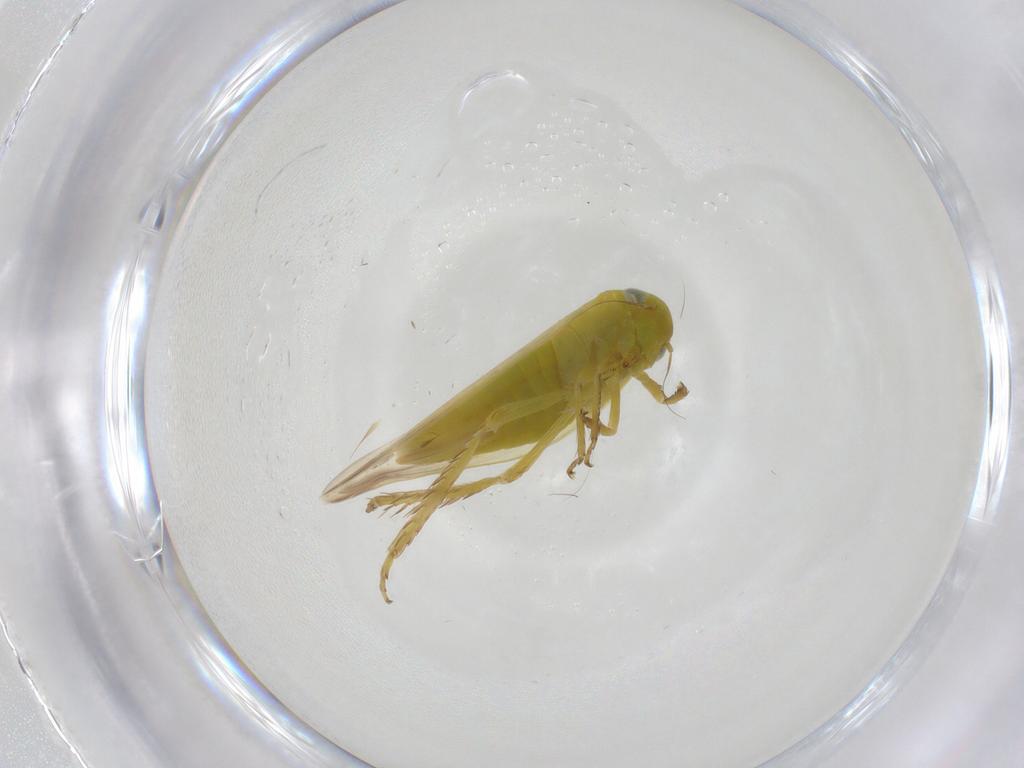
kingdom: Animalia
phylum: Arthropoda
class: Insecta
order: Hemiptera
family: Cicadellidae
